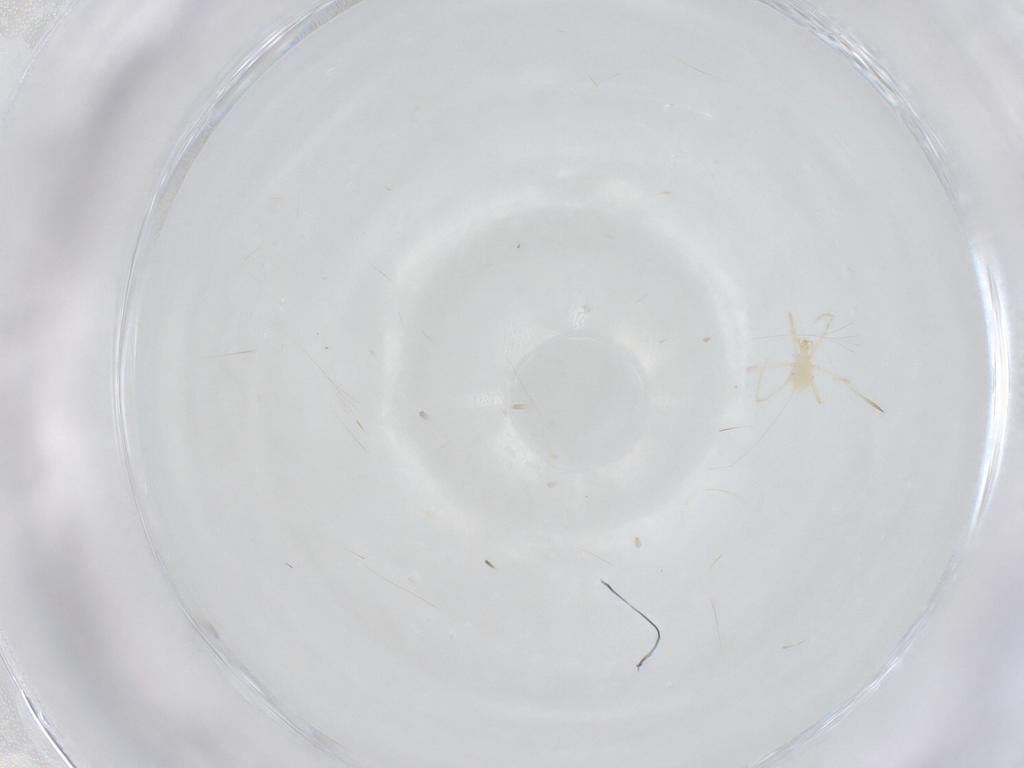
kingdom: Animalia
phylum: Arthropoda
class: Arachnida
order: Trombidiformes
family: Erythraeidae
